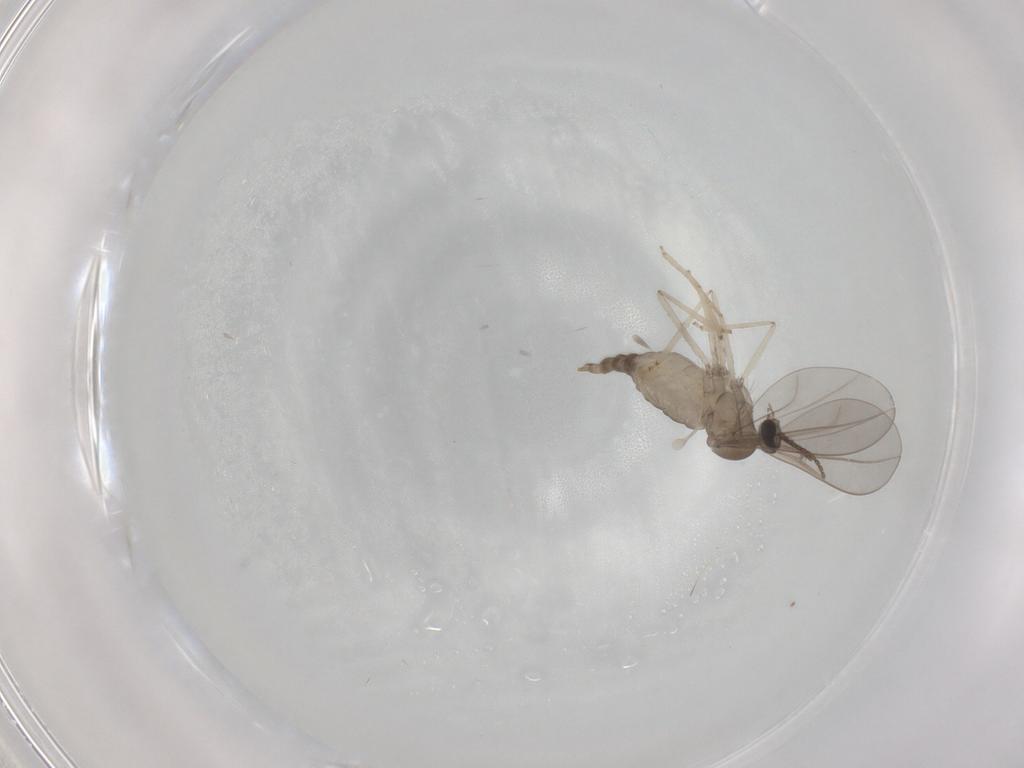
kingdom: Animalia
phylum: Arthropoda
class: Insecta
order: Diptera
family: Cecidomyiidae
